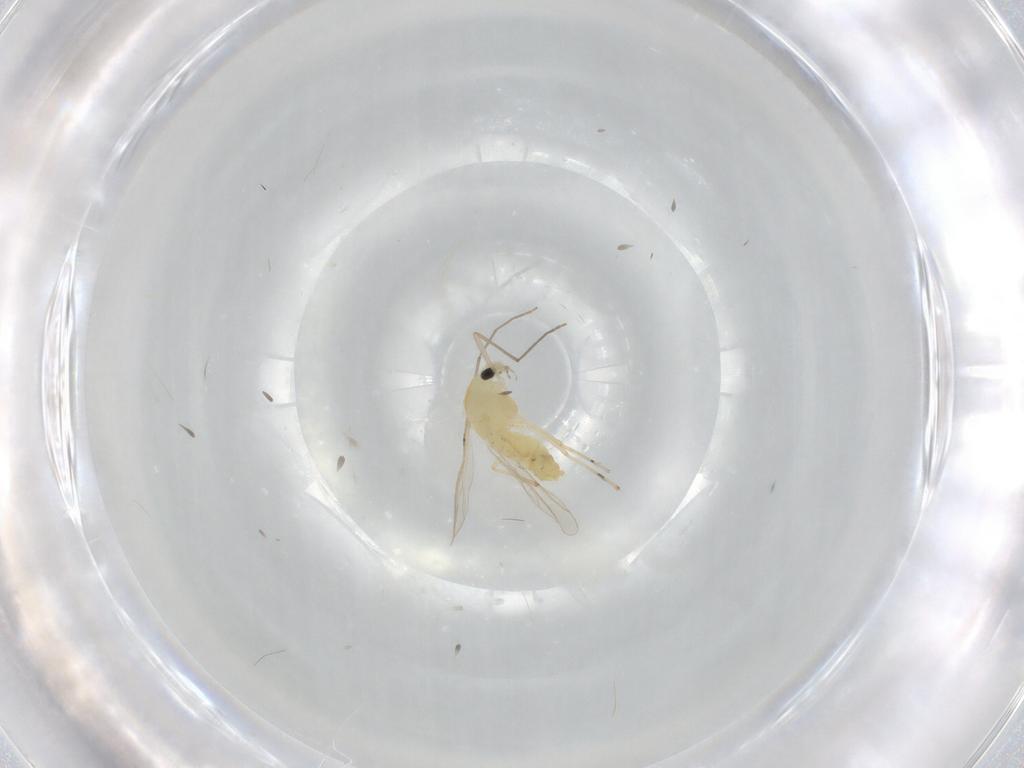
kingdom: Animalia
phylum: Arthropoda
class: Insecta
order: Diptera
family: Chironomidae
